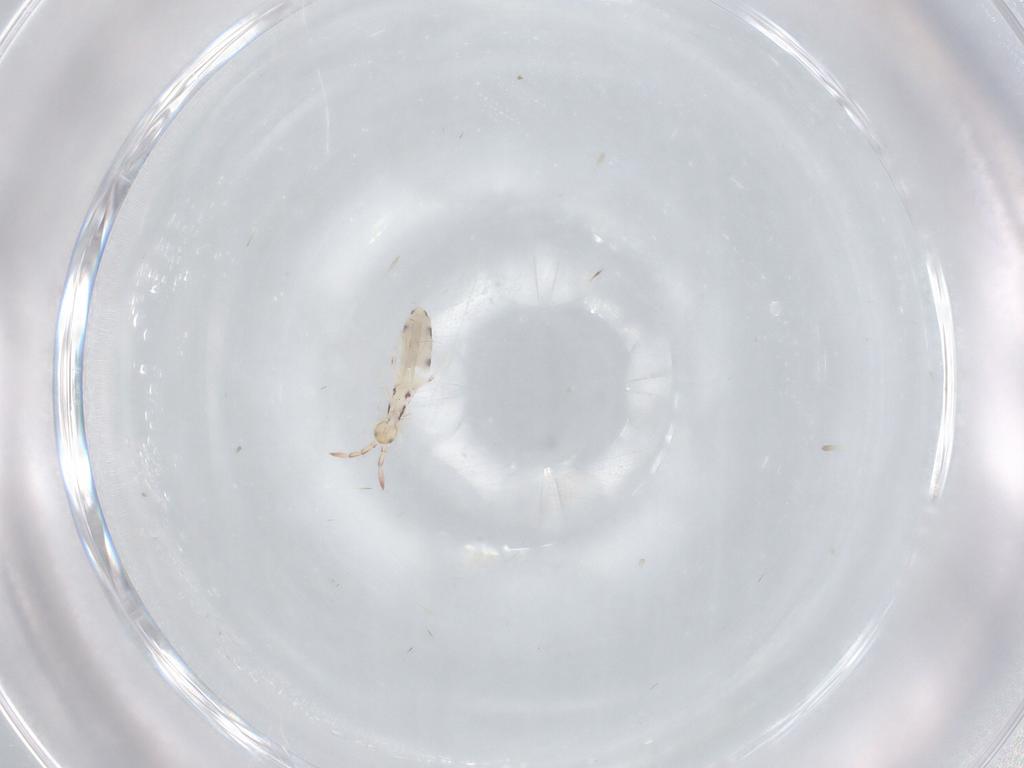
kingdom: Animalia
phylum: Arthropoda
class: Collembola
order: Entomobryomorpha
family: Entomobryidae
